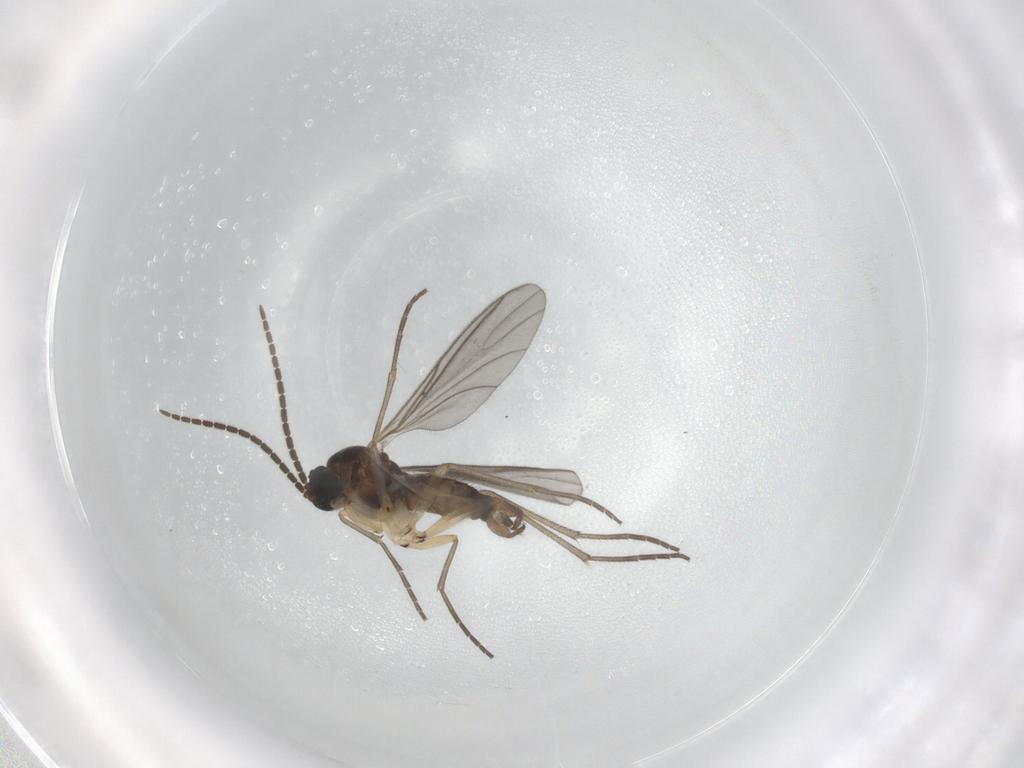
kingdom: Animalia
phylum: Arthropoda
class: Insecta
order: Diptera
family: Sciaridae
